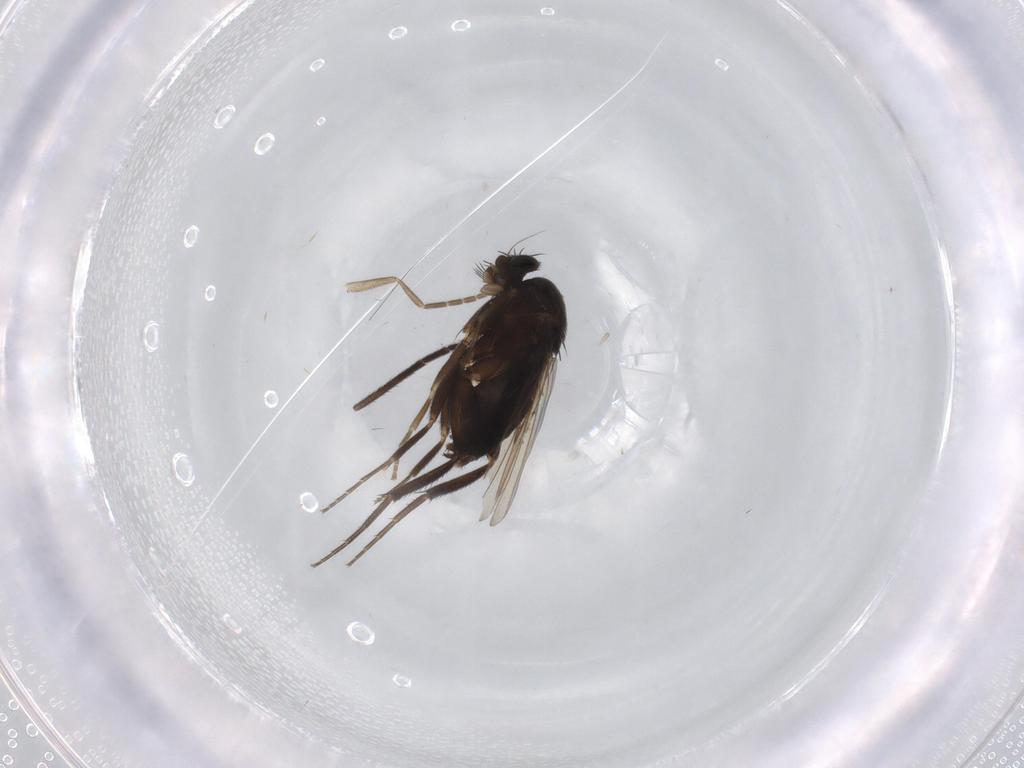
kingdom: Animalia
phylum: Arthropoda
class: Insecta
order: Diptera
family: Phoridae
